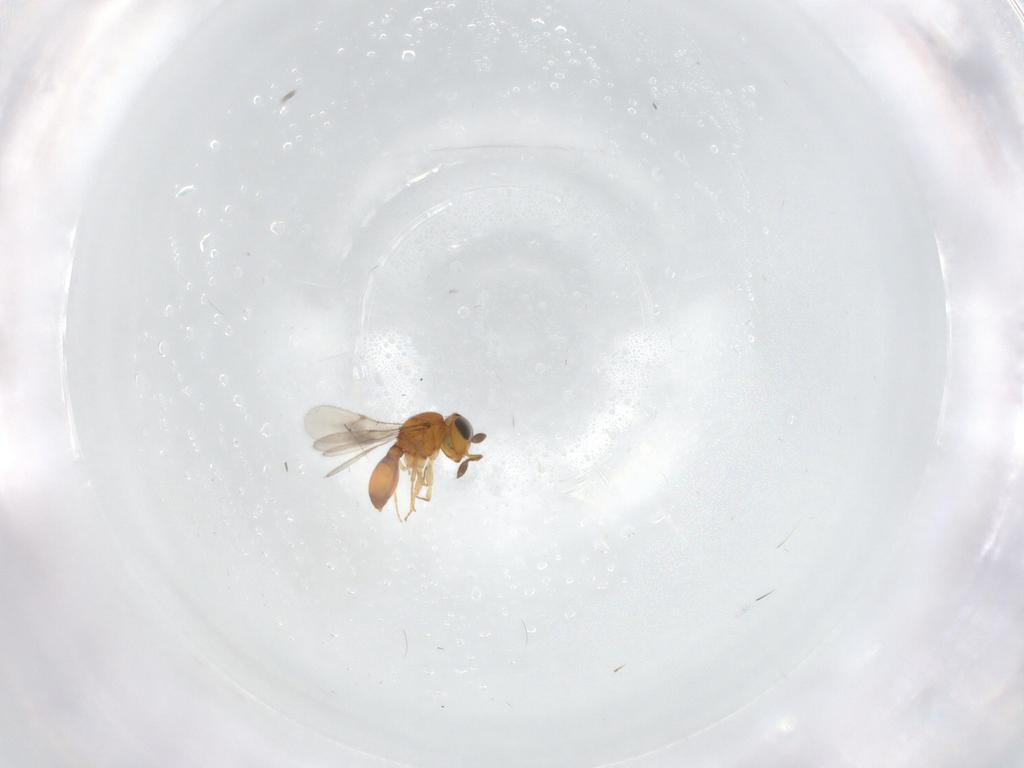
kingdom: Animalia
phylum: Arthropoda
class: Insecta
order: Hymenoptera
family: Scelionidae
